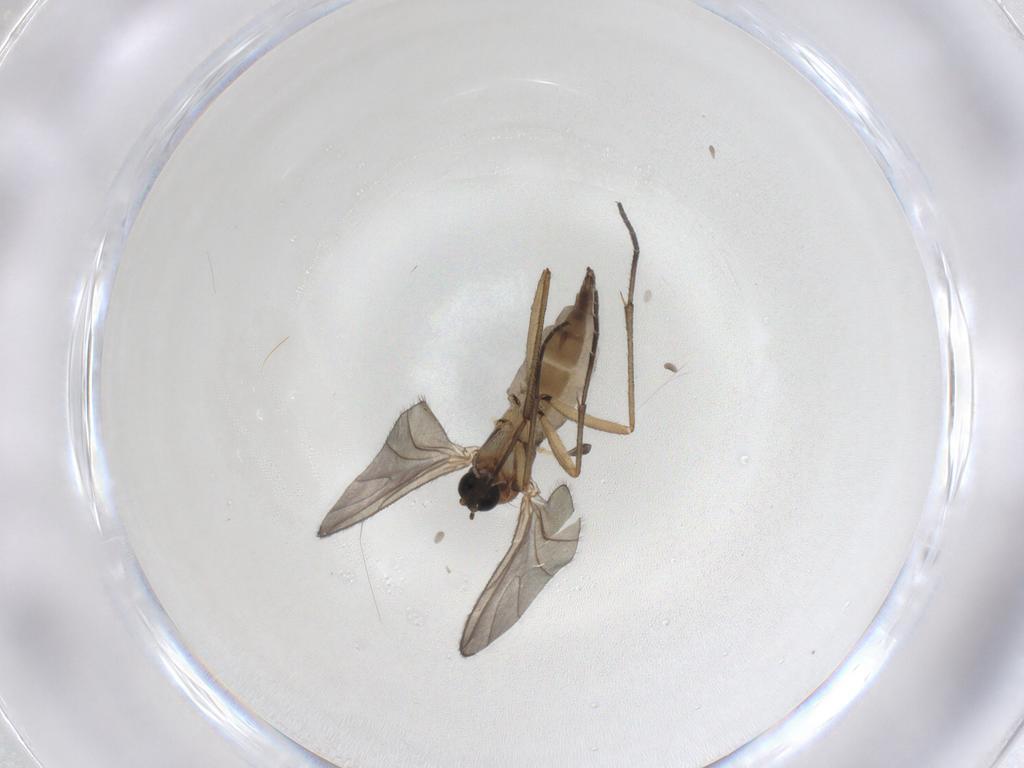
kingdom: Animalia
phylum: Arthropoda
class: Insecta
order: Diptera
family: Sciaridae
